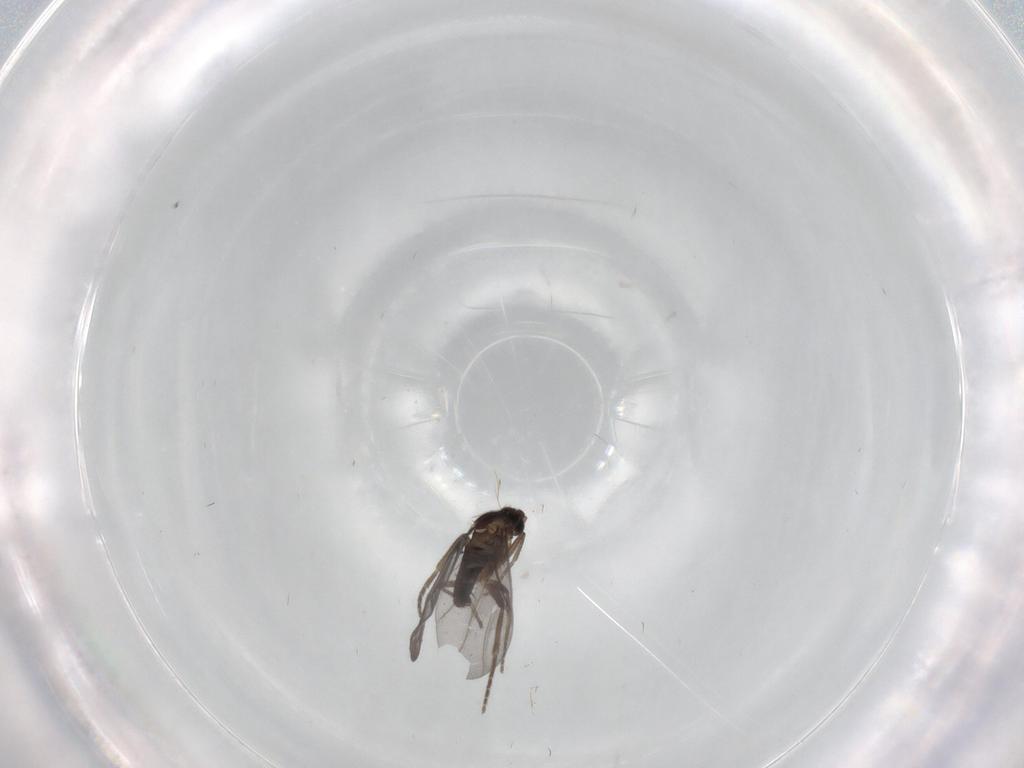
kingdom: Animalia
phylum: Arthropoda
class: Insecta
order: Diptera
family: Phoridae
